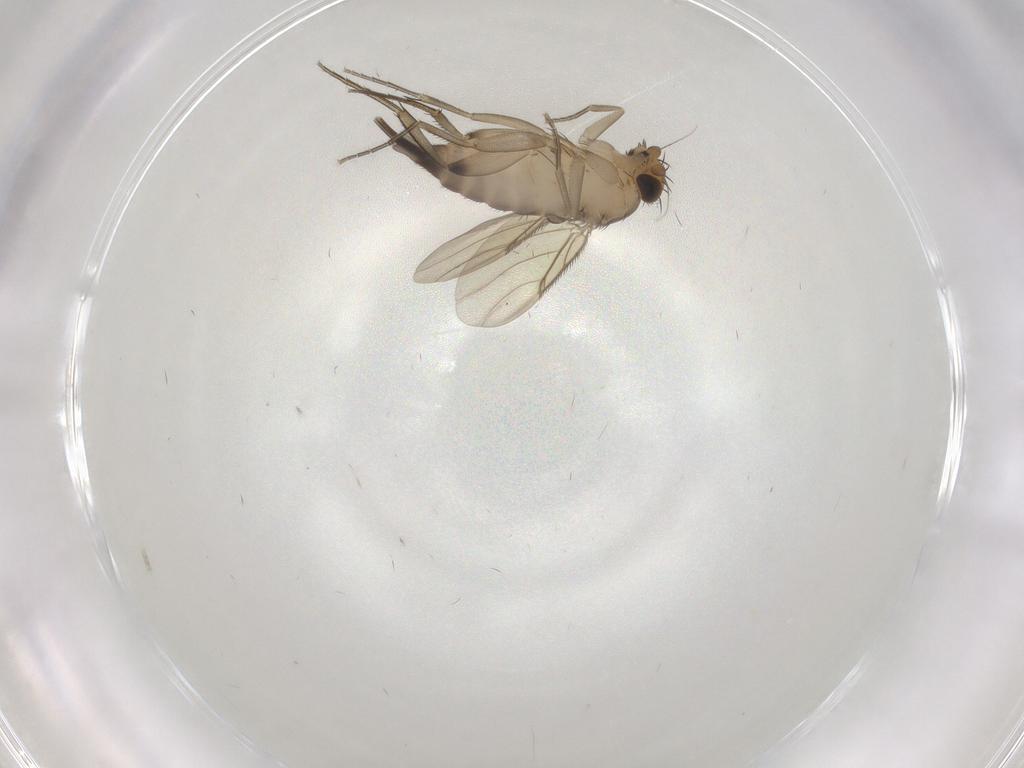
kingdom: Animalia
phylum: Arthropoda
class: Insecta
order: Diptera
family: Phoridae
